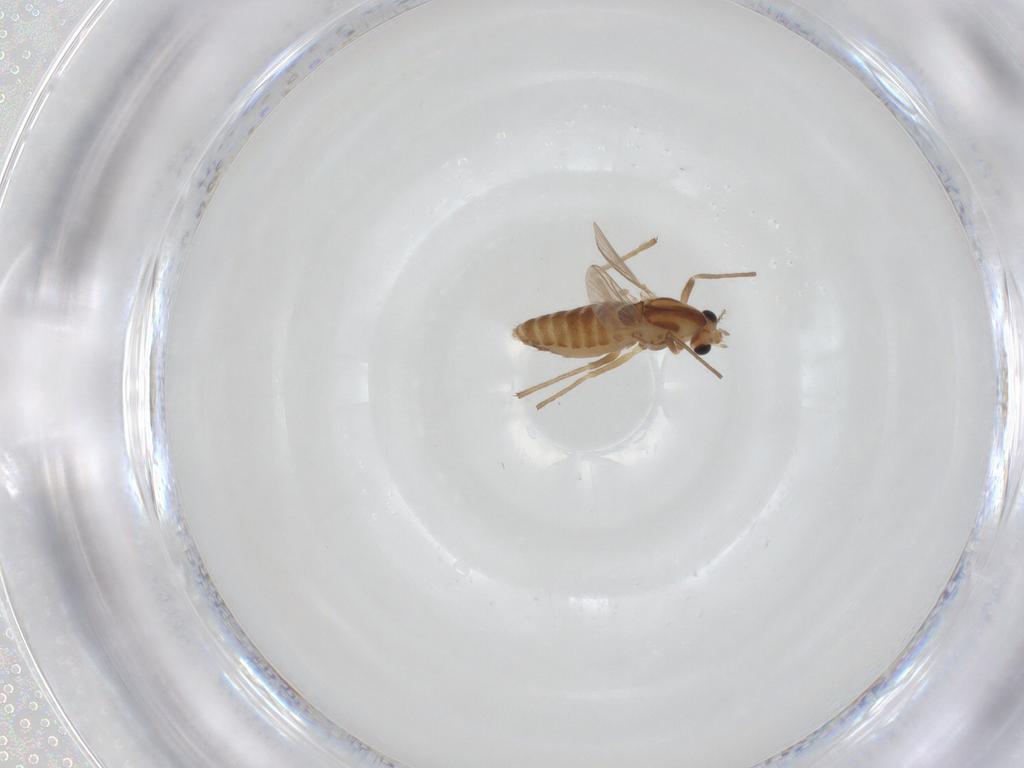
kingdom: Animalia
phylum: Arthropoda
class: Insecta
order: Diptera
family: Chironomidae
